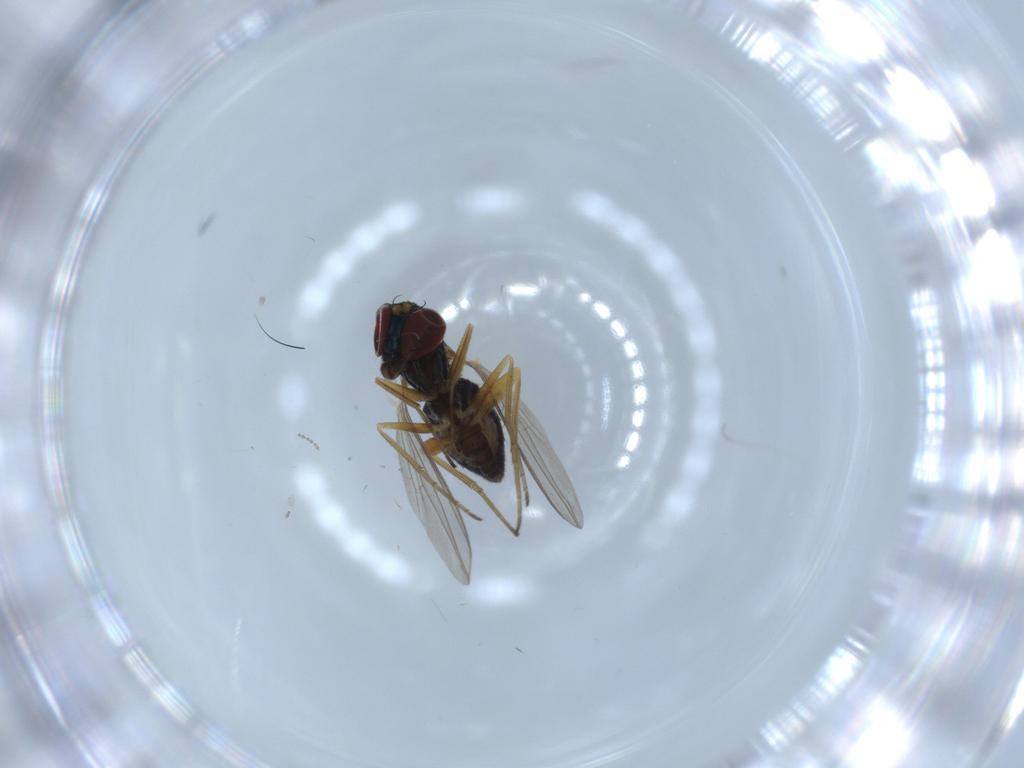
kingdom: Animalia
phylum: Arthropoda
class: Insecta
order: Diptera
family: Dolichopodidae
